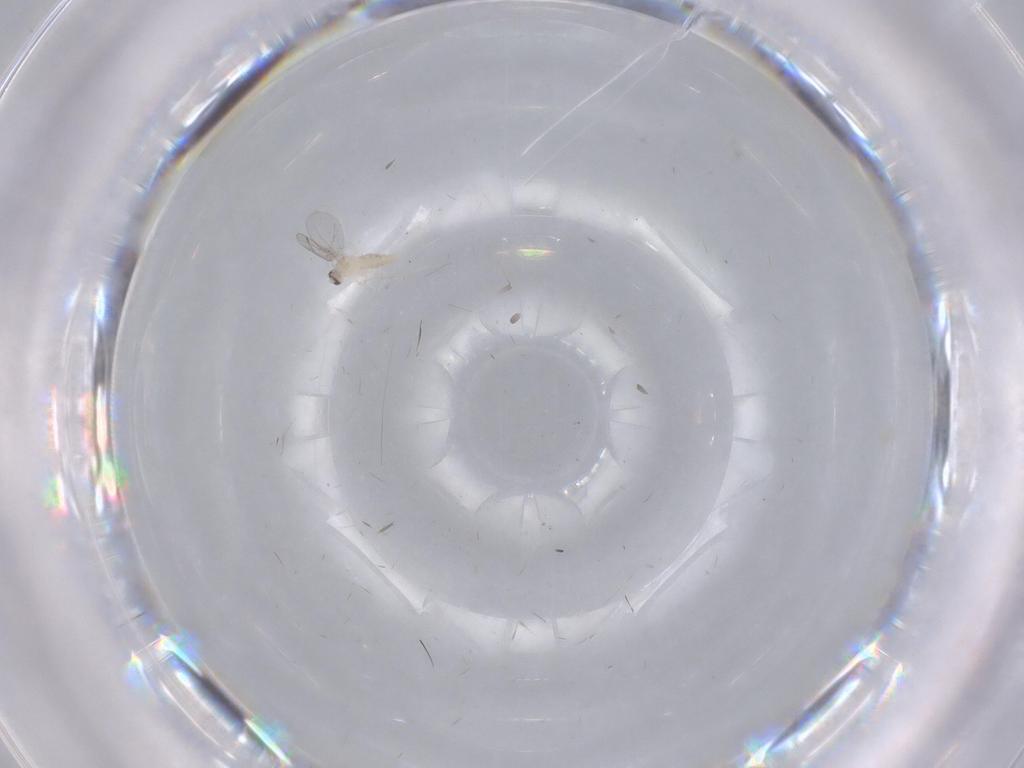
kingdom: Animalia
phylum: Arthropoda
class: Insecta
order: Diptera
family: Cecidomyiidae
